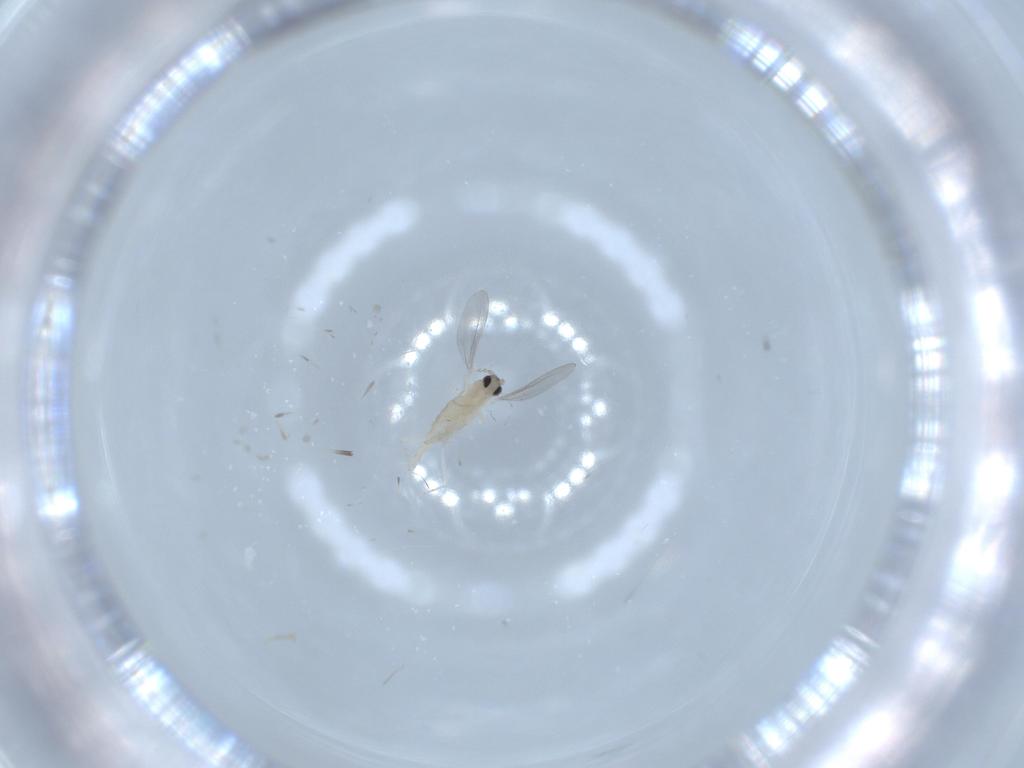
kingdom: Animalia
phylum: Arthropoda
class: Insecta
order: Diptera
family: Cecidomyiidae
